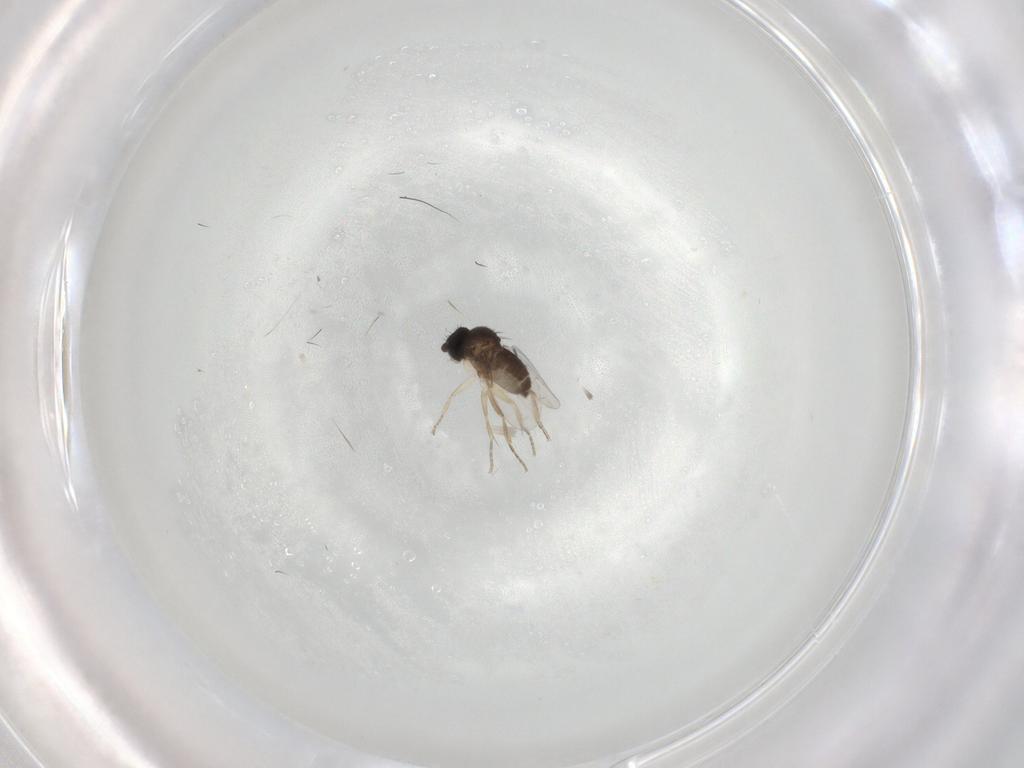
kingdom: Animalia
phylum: Arthropoda
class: Insecta
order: Diptera
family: Phoridae
